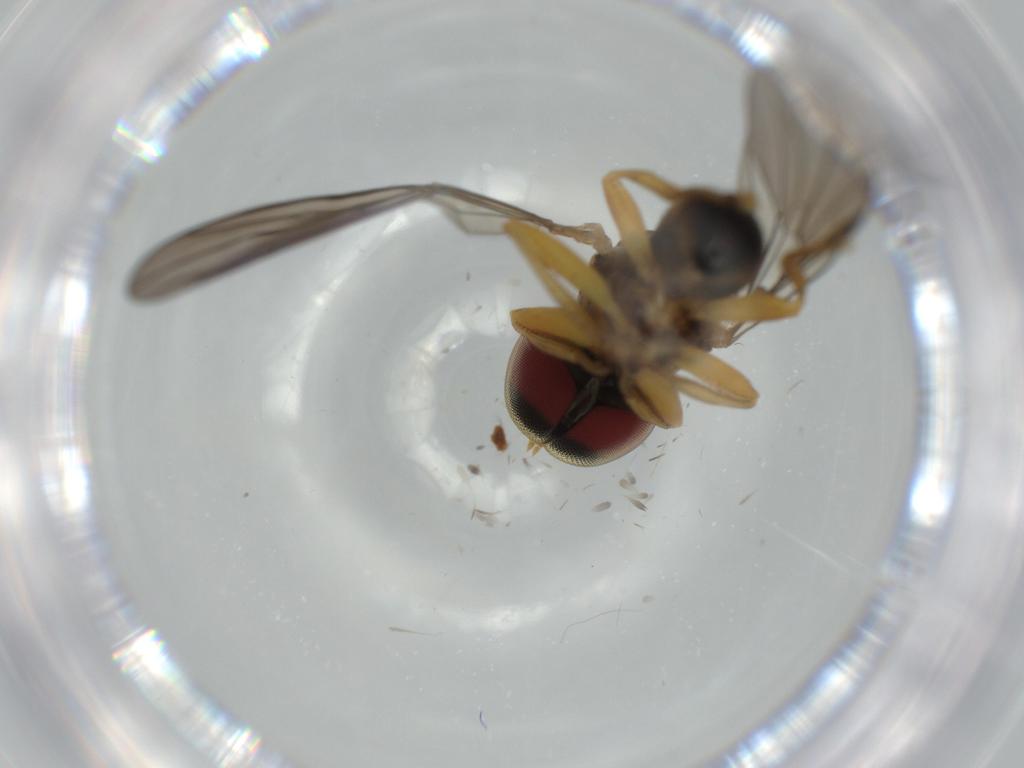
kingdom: Animalia
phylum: Arthropoda
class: Insecta
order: Diptera
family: Pipunculidae
